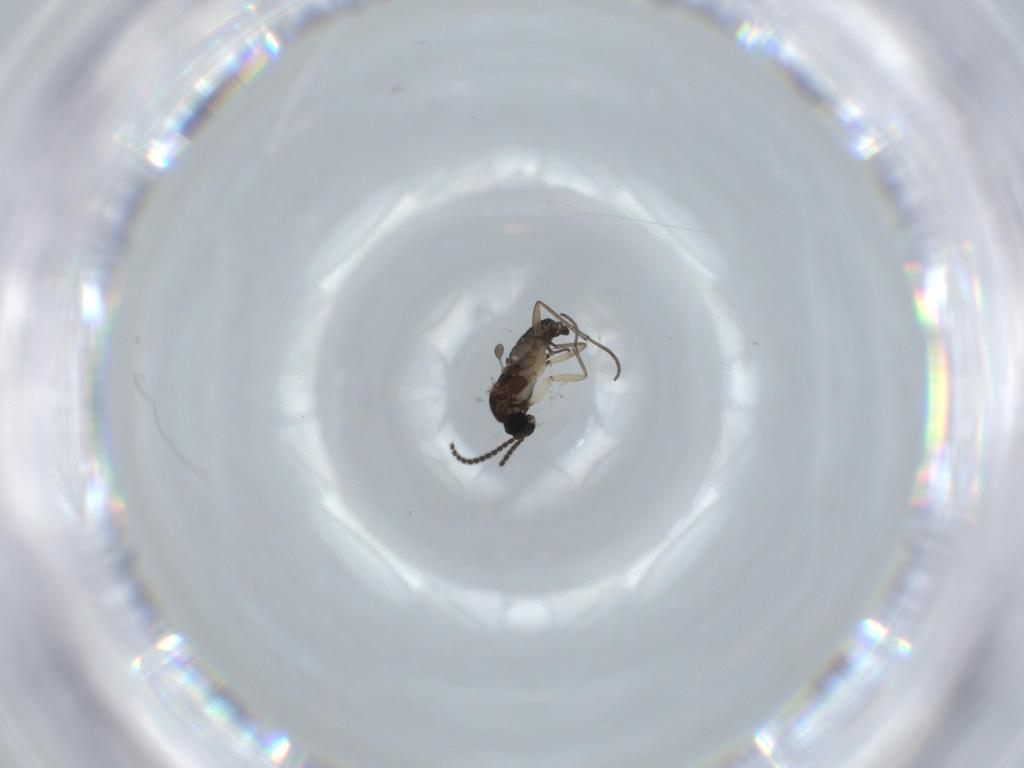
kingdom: Animalia
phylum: Arthropoda
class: Insecta
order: Diptera
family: Sciaridae
